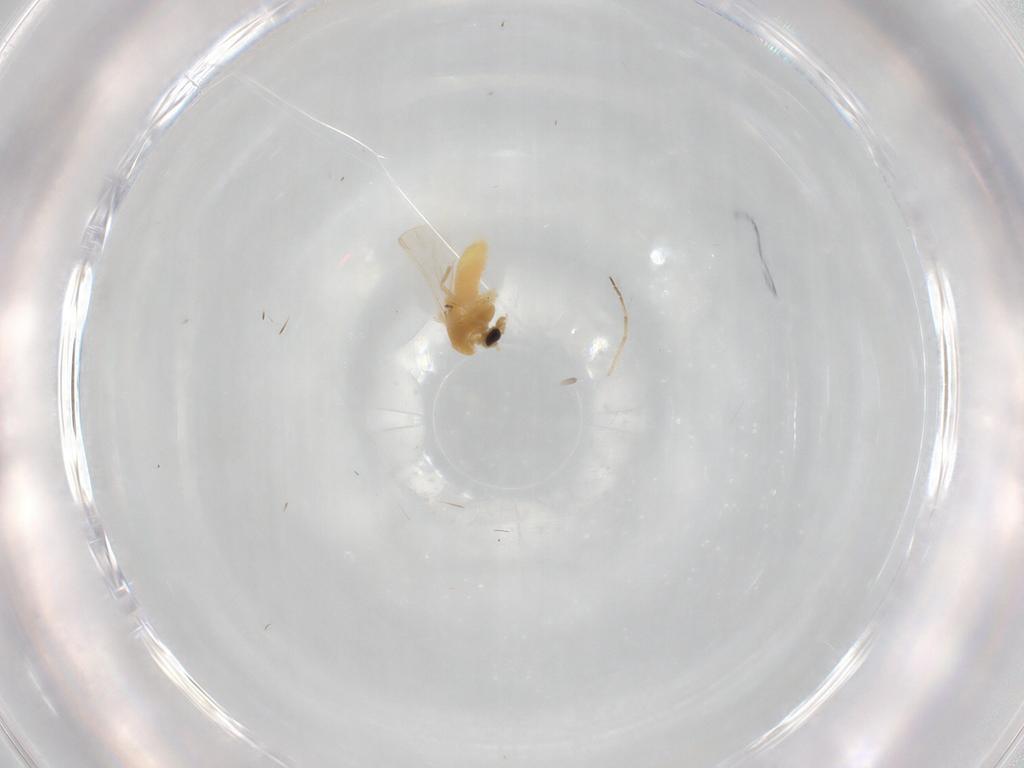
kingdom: Animalia
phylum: Arthropoda
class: Insecta
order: Diptera
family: Chironomidae
